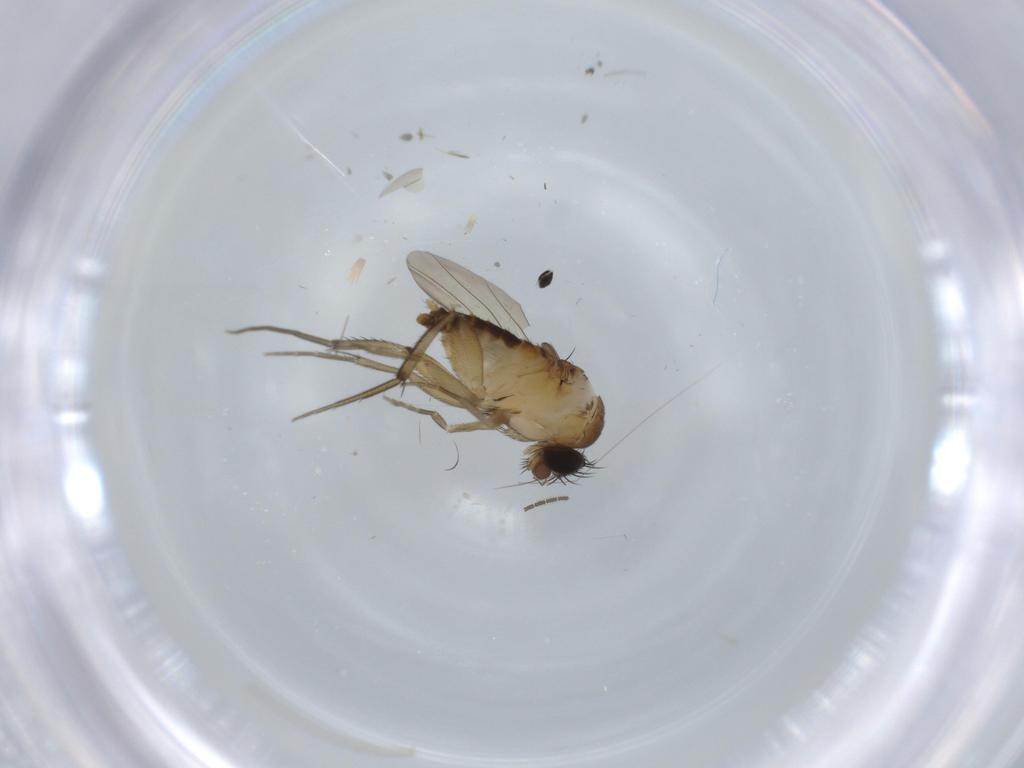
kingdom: Animalia
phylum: Arthropoda
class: Insecta
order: Diptera
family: Phoridae
